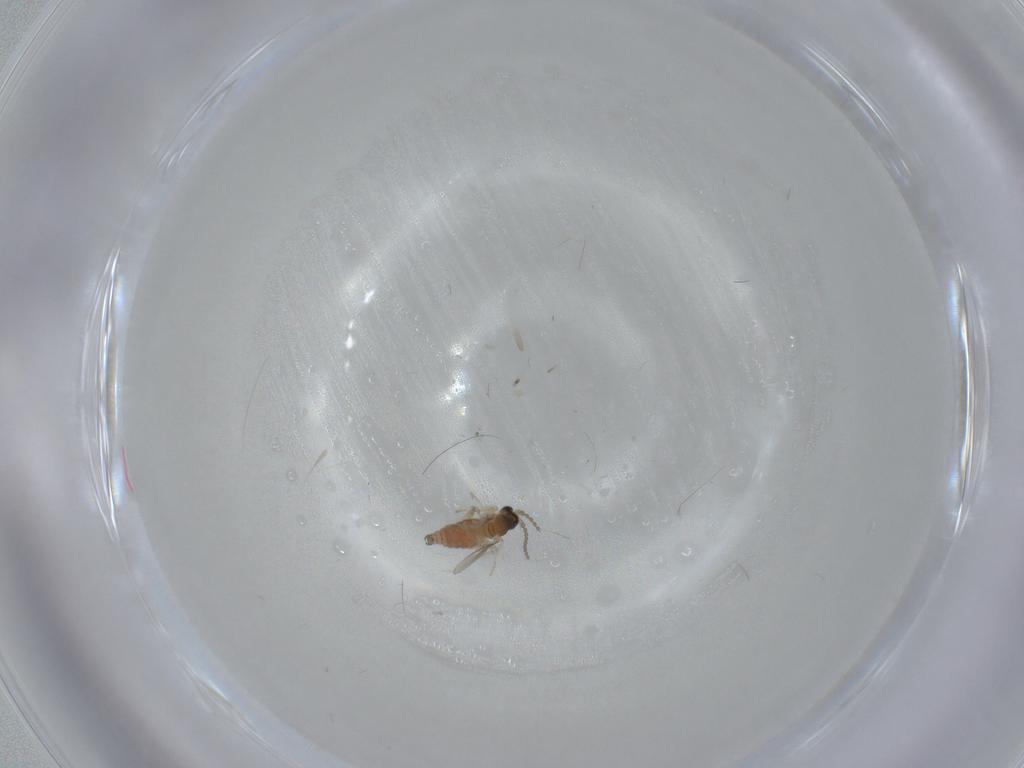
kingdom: Animalia
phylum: Arthropoda
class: Insecta
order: Diptera
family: Cecidomyiidae
